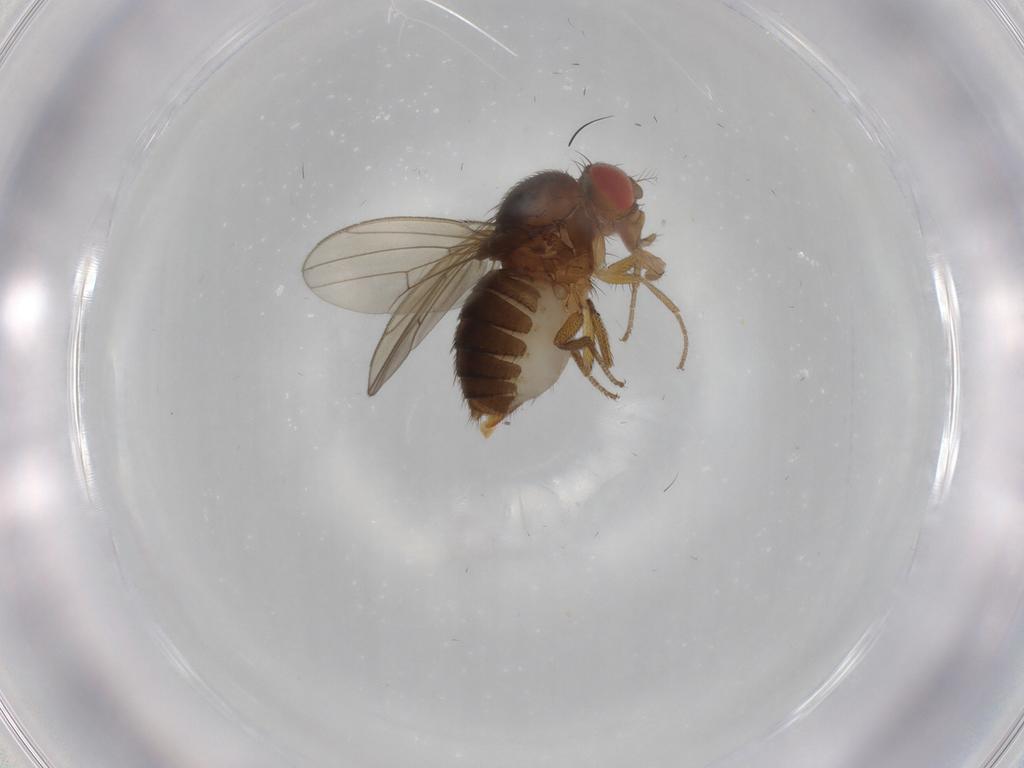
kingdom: Animalia
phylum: Arthropoda
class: Insecta
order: Diptera
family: Drosophilidae
